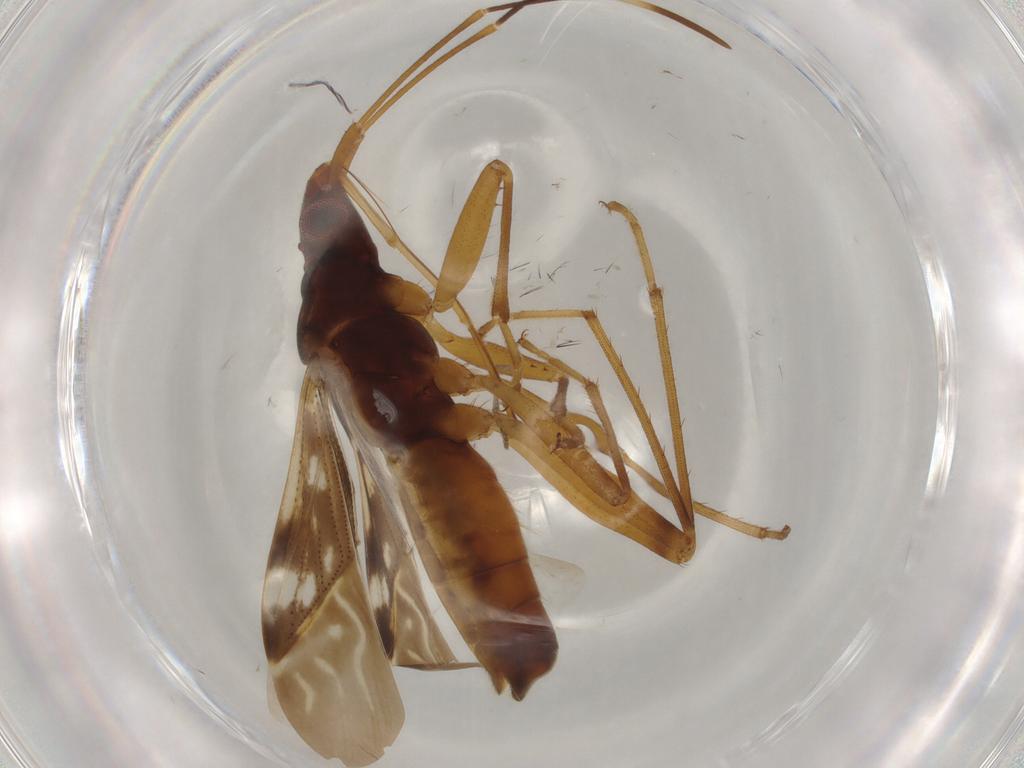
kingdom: Animalia
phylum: Arthropoda
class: Insecta
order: Hemiptera
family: Rhyparochromidae
